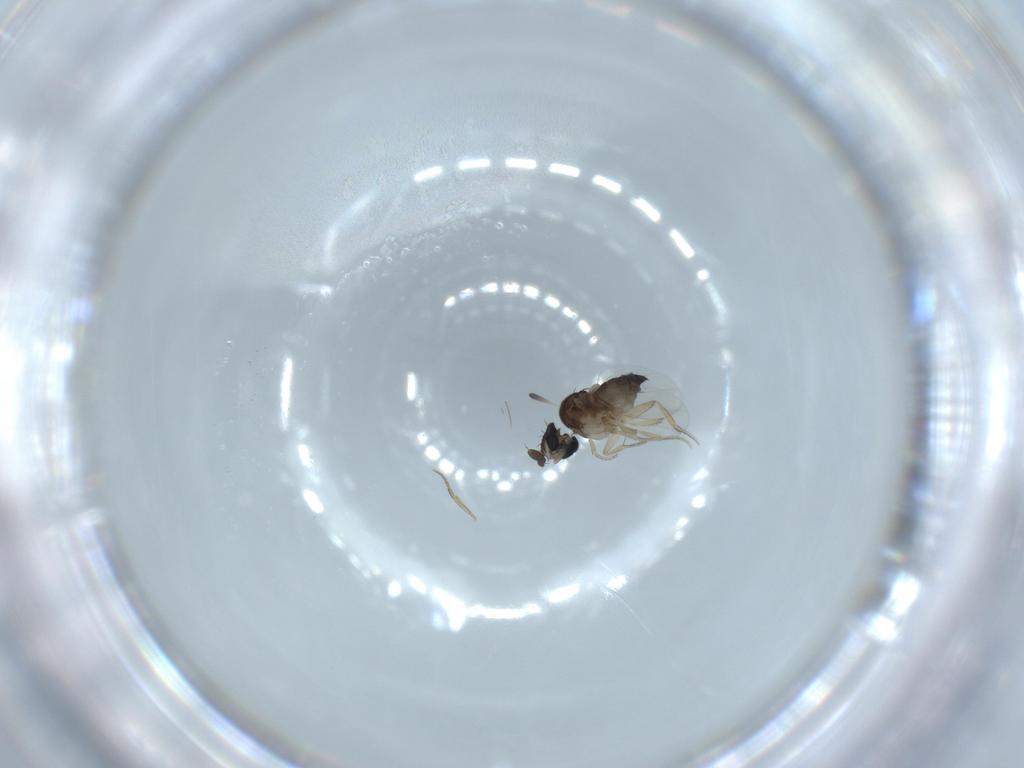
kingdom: Animalia
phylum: Arthropoda
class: Insecta
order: Diptera
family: Phoridae
